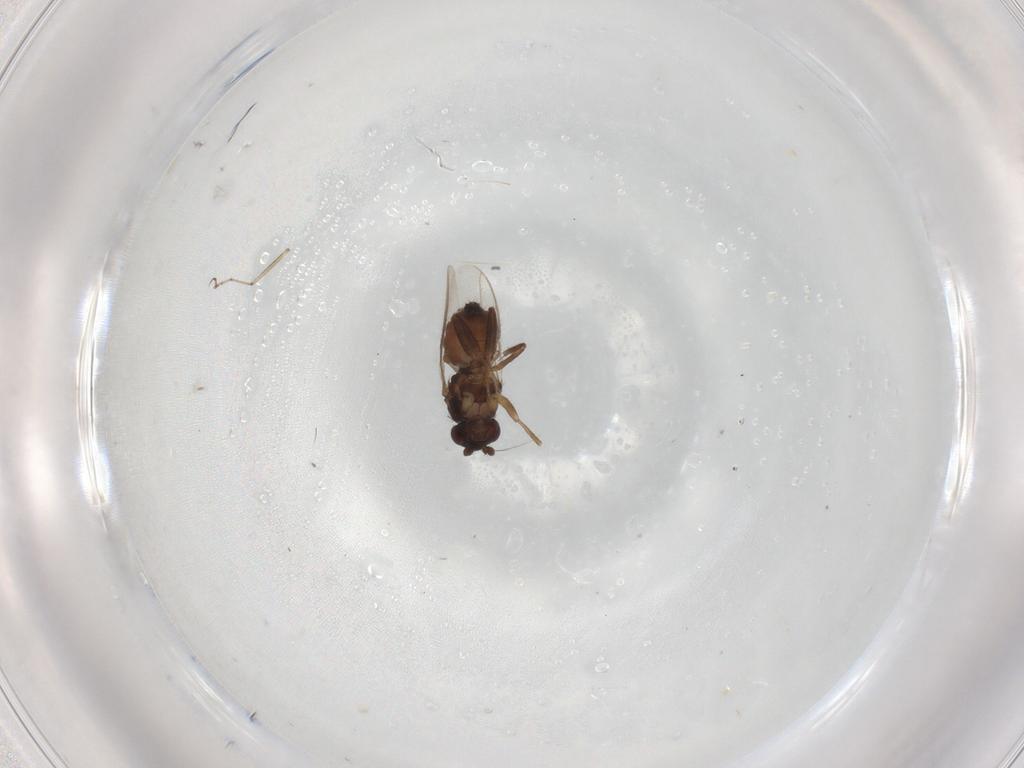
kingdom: Animalia
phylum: Arthropoda
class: Insecta
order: Diptera
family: Sphaeroceridae
